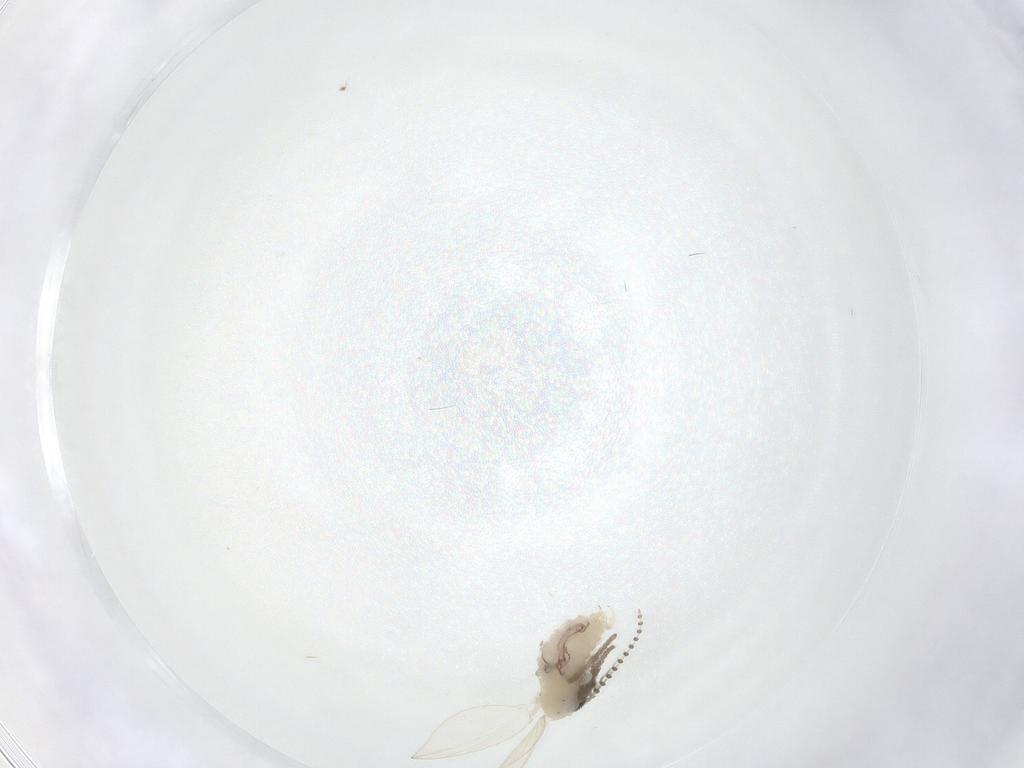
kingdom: Animalia
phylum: Arthropoda
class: Insecta
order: Diptera
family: Psychodidae
